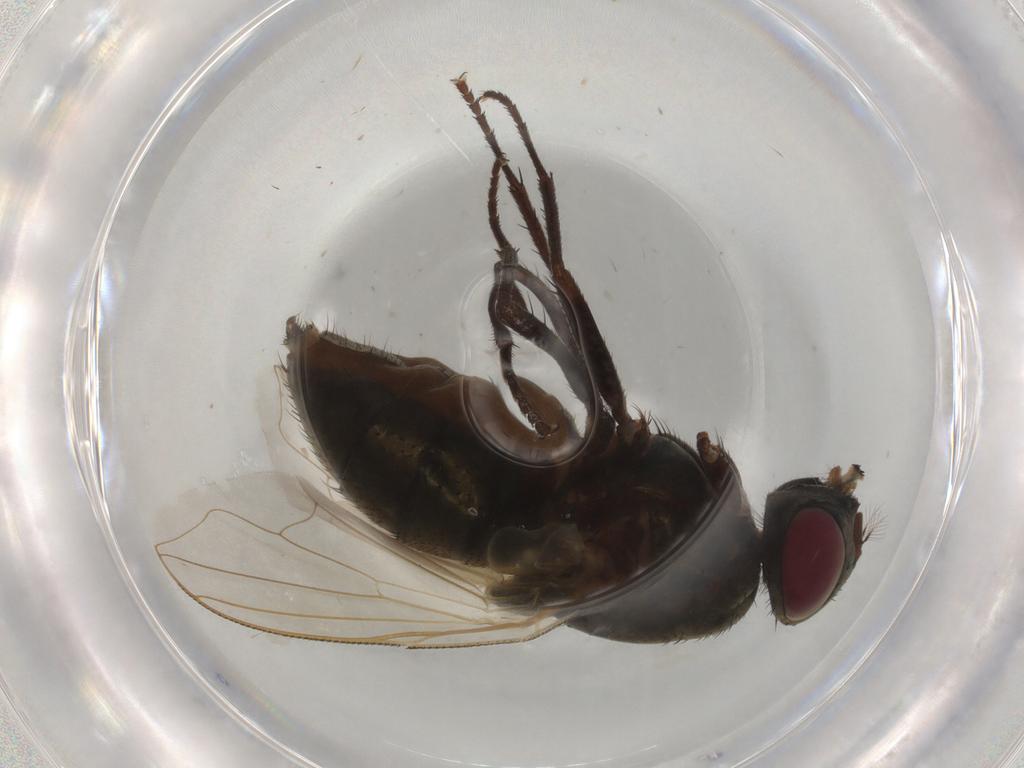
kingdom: Animalia
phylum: Arthropoda
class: Insecta
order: Diptera
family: Muscidae
